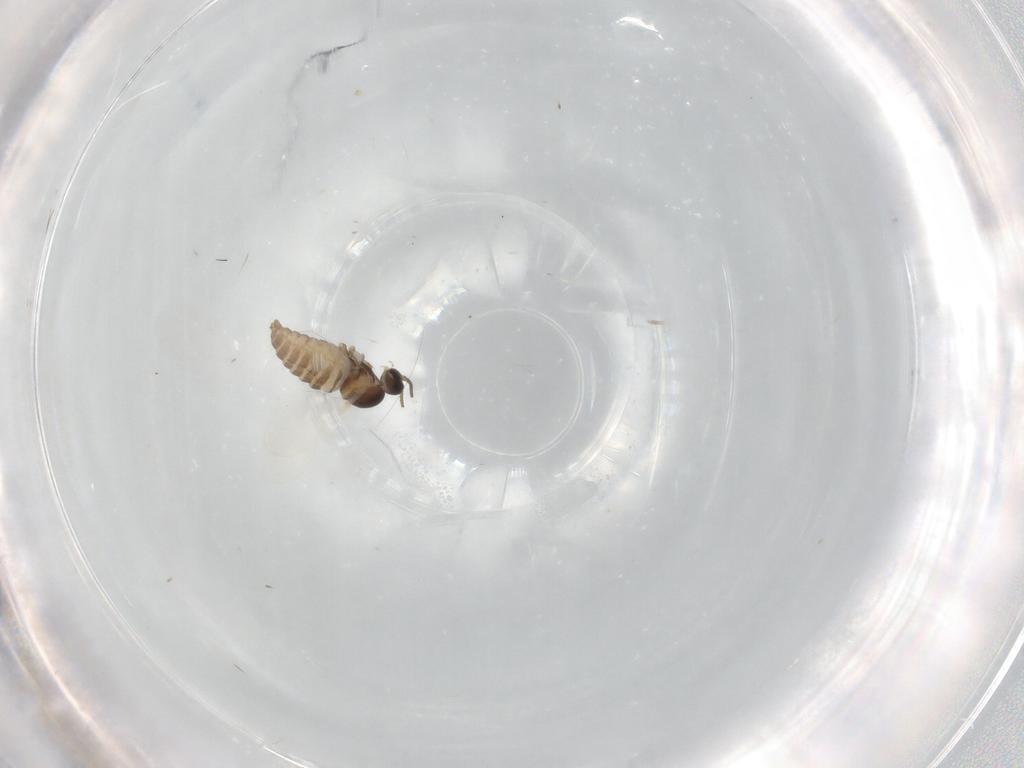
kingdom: Animalia
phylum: Arthropoda
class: Insecta
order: Diptera
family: Cecidomyiidae
